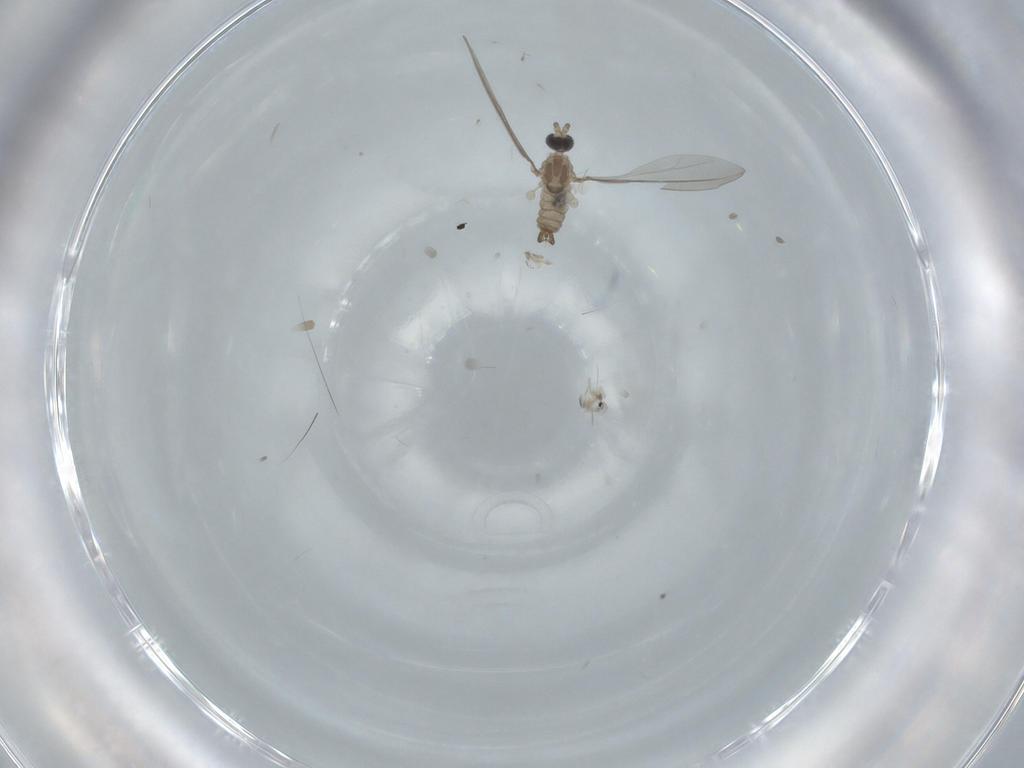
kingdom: Animalia
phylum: Arthropoda
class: Insecta
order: Diptera
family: Cecidomyiidae
